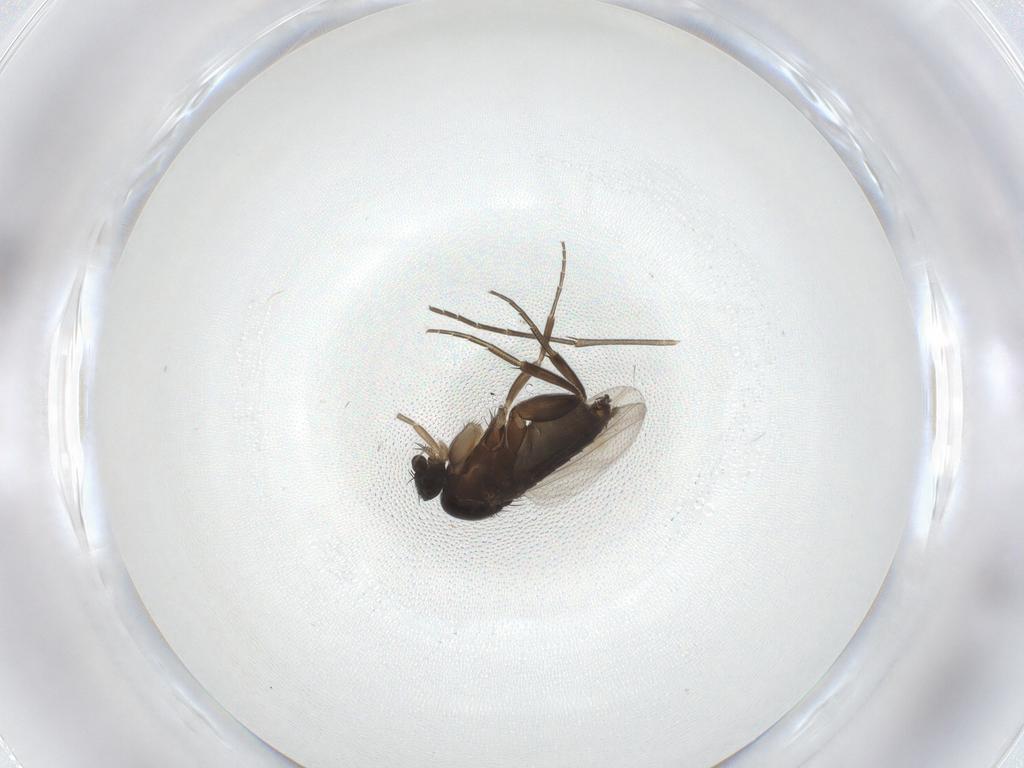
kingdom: Animalia
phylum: Arthropoda
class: Insecta
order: Diptera
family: Phoridae
